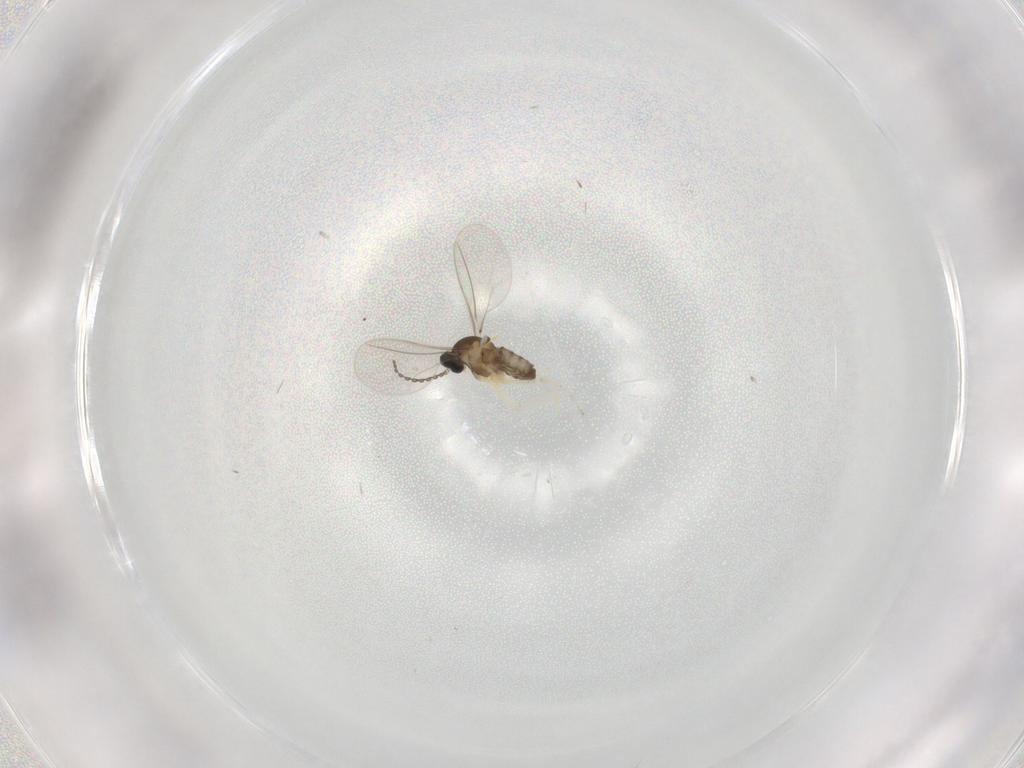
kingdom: Animalia
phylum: Arthropoda
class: Insecta
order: Diptera
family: Cecidomyiidae
